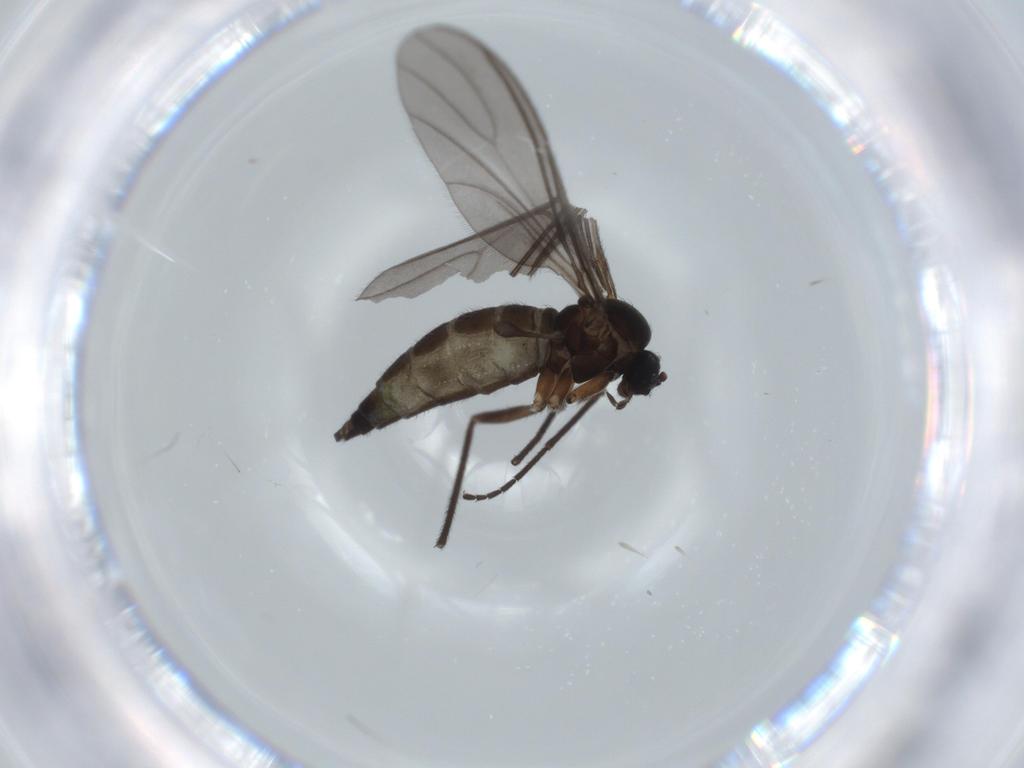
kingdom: Animalia
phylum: Arthropoda
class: Insecta
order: Diptera
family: Sciaridae
